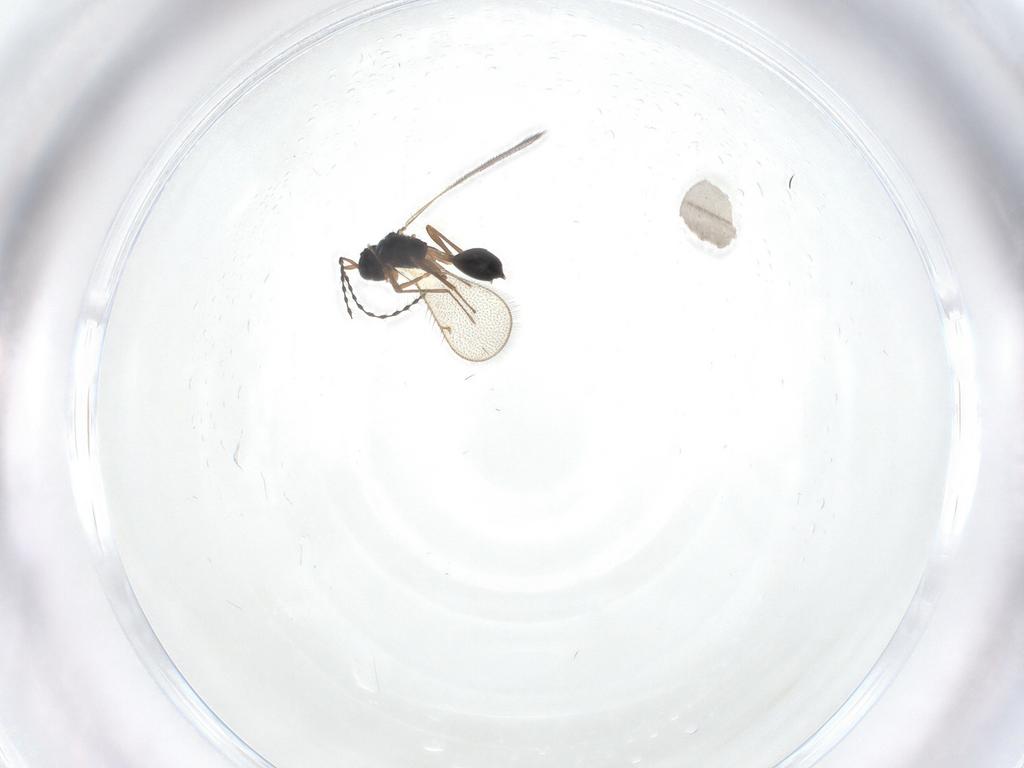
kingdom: Animalia
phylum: Arthropoda
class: Insecta
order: Hymenoptera
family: Diparidae
